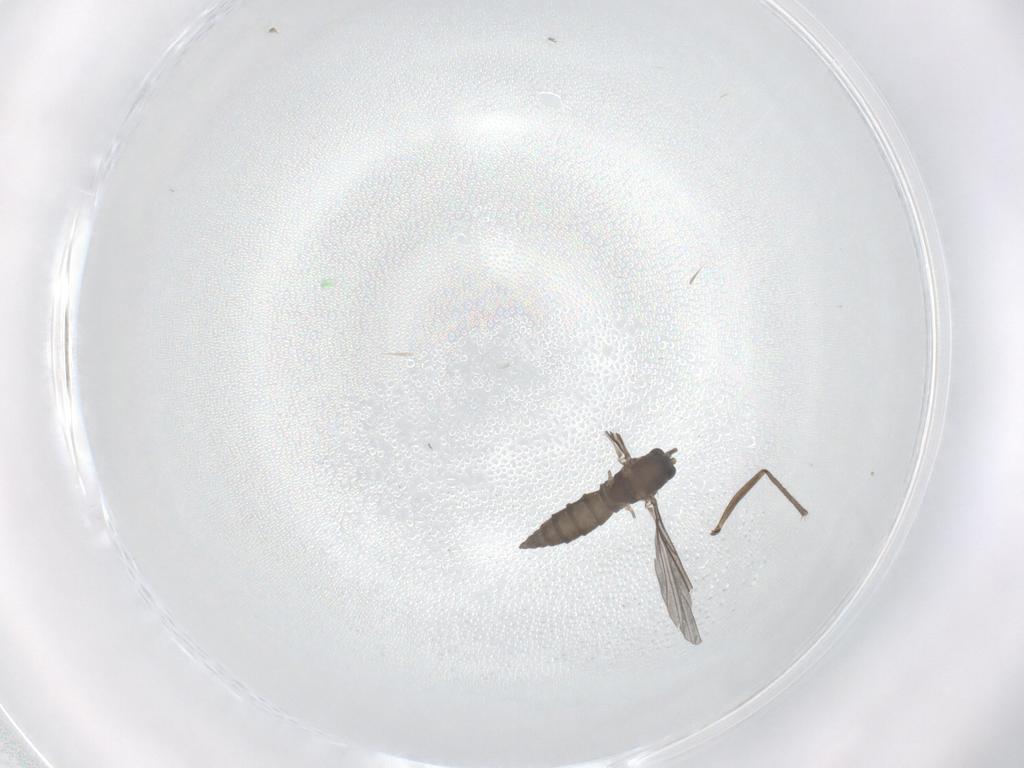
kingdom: Animalia
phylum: Arthropoda
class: Insecta
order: Diptera
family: Sciaridae
